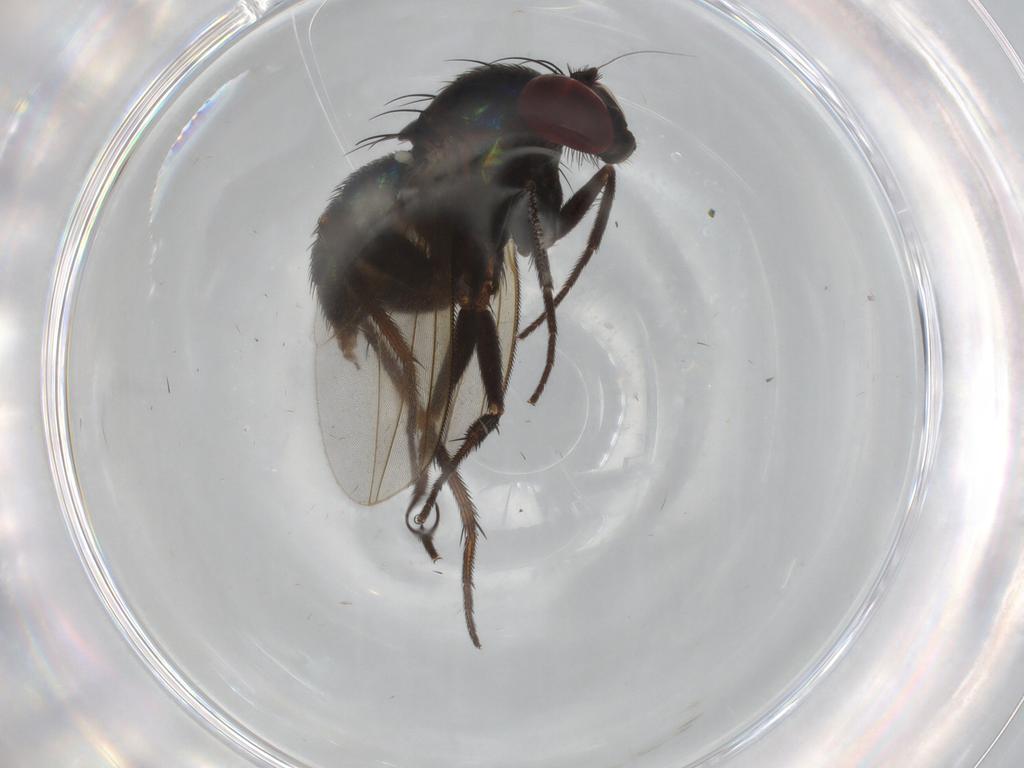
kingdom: Animalia
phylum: Arthropoda
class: Insecta
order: Diptera
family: Dolichopodidae
